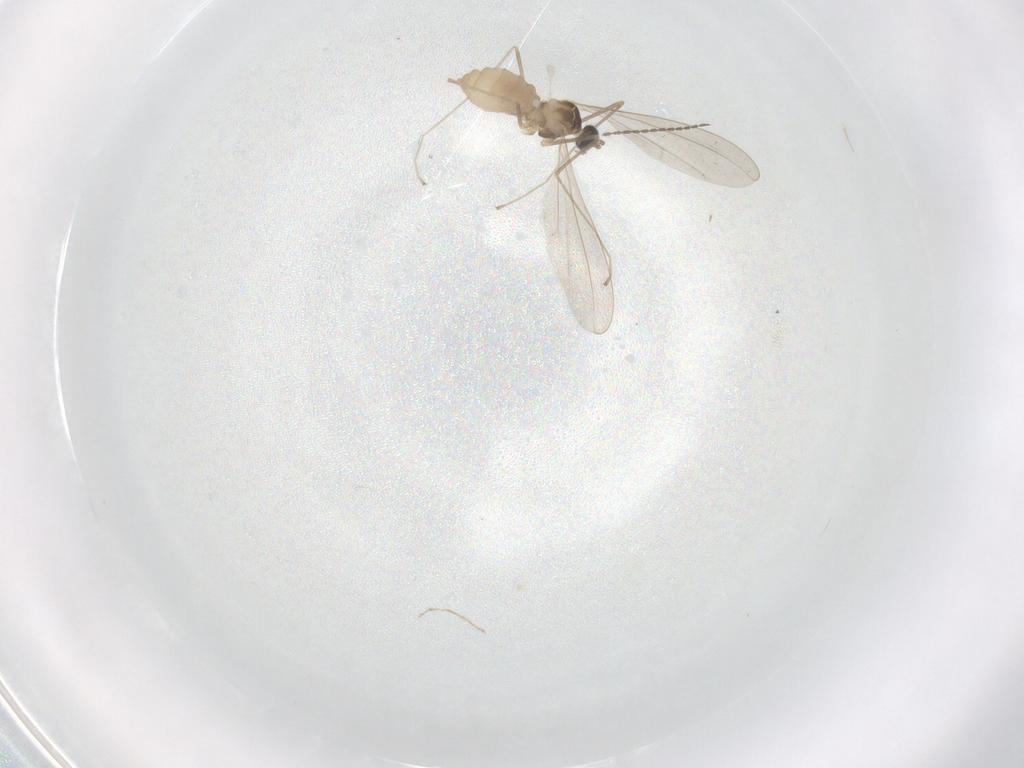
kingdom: Animalia
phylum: Arthropoda
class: Insecta
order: Diptera
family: Cecidomyiidae
